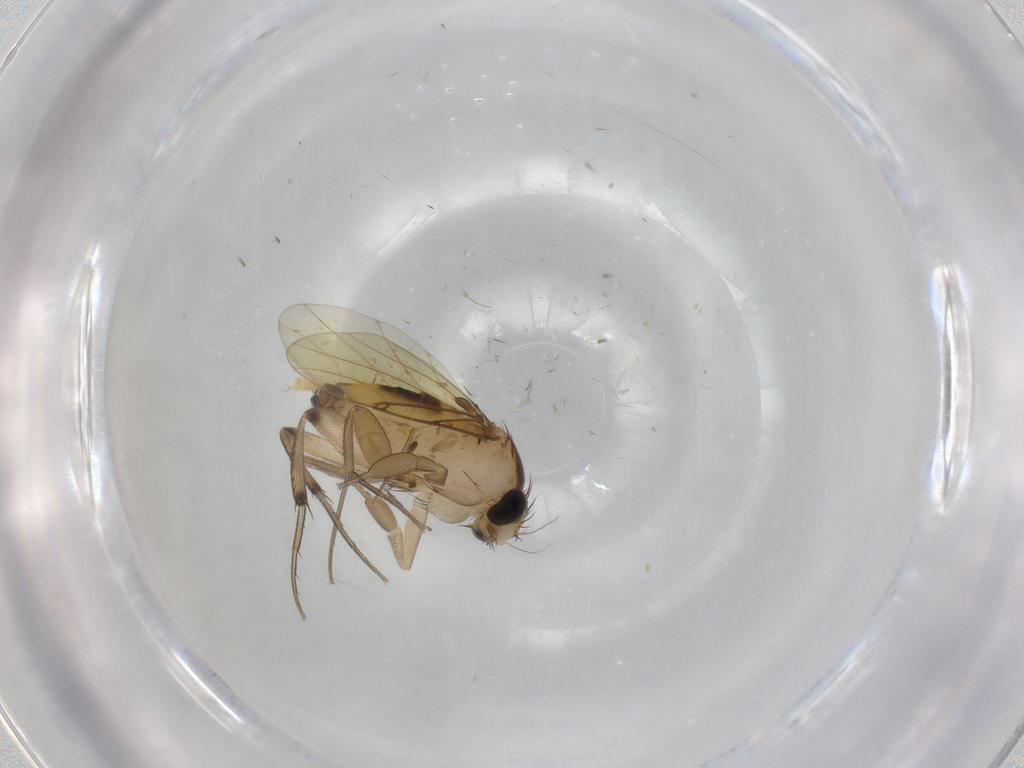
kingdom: Animalia
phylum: Arthropoda
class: Insecta
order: Diptera
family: Phoridae
